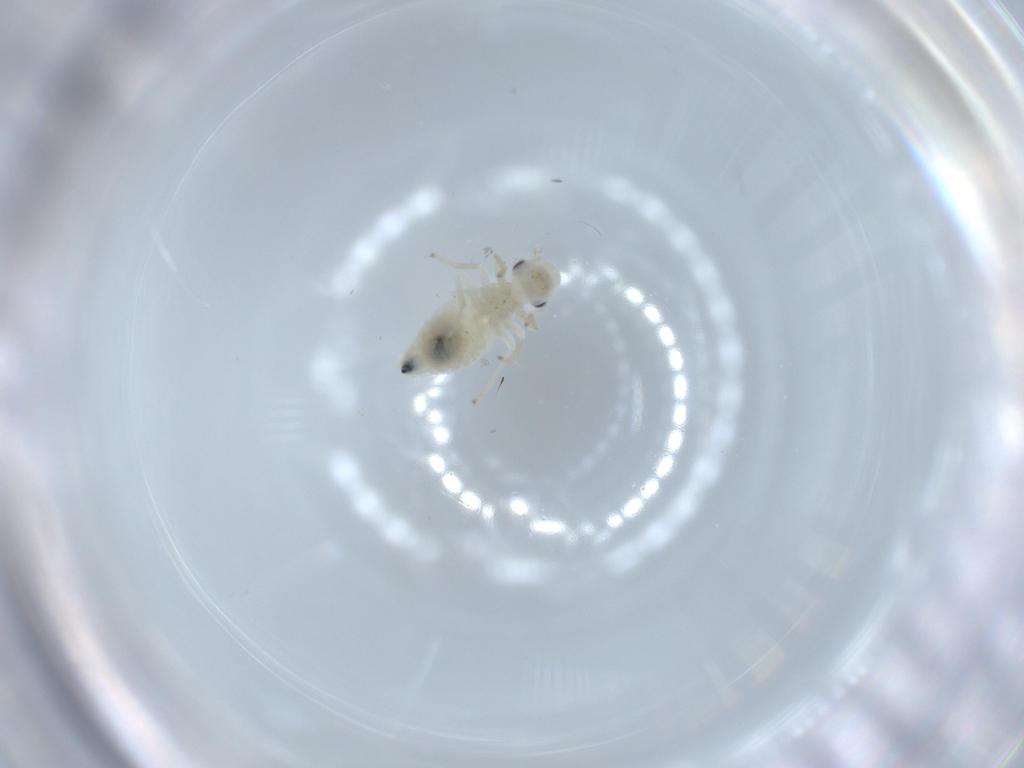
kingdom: Animalia
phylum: Arthropoda
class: Insecta
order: Psocodea
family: Caeciliusidae
